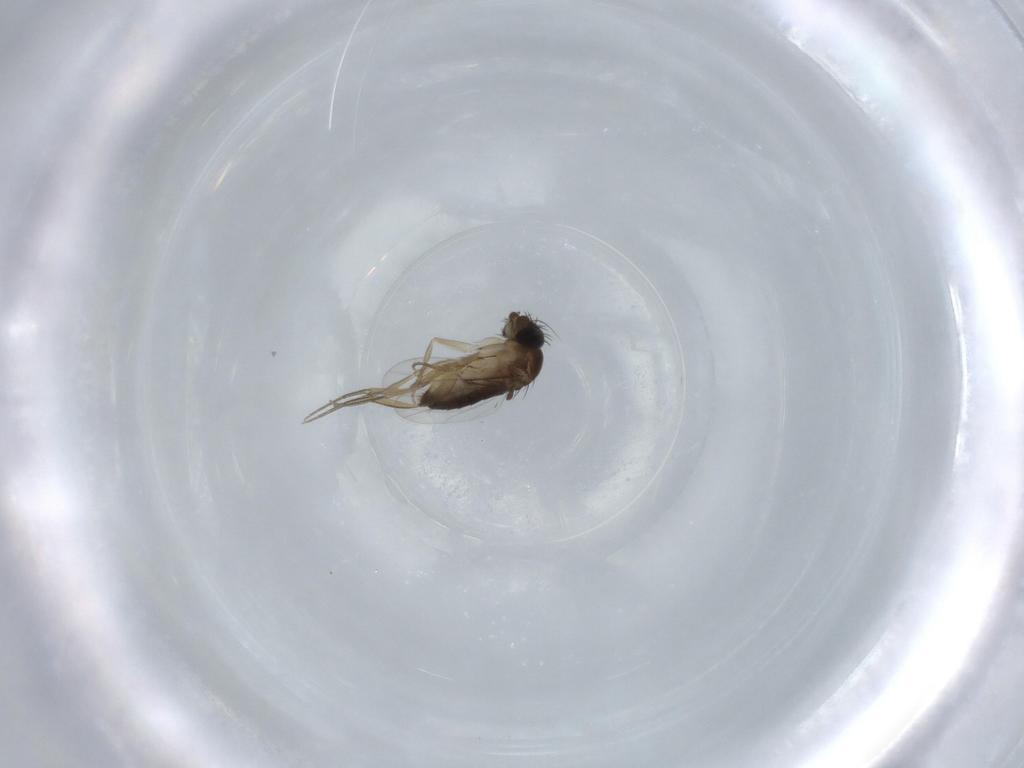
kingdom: Animalia
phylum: Arthropoda
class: Insecta
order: Diptera
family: Phoridae
